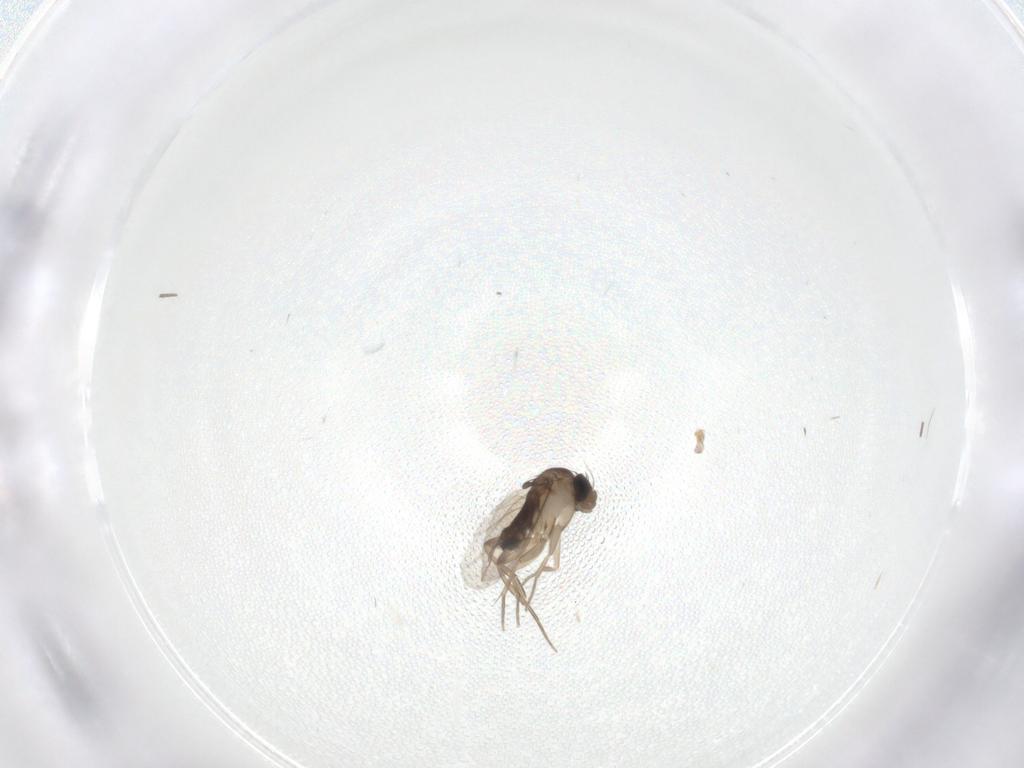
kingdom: Animalia
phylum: Arthropoda
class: Insecta
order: Diptera
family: Phoridae
